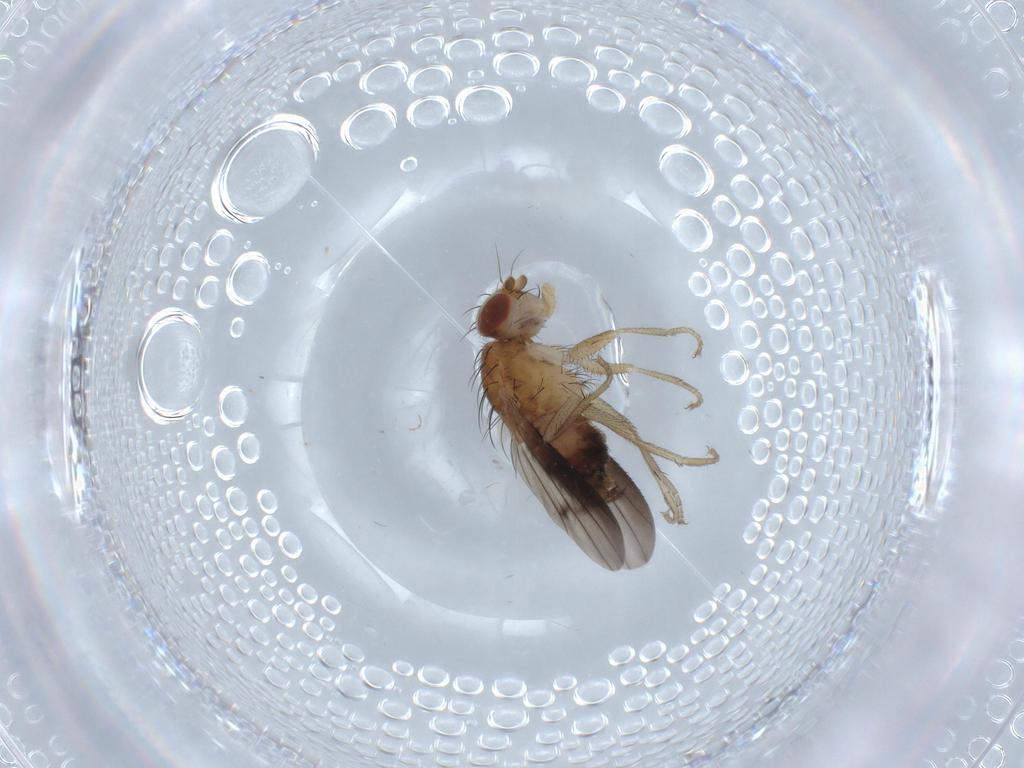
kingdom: Animalia
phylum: Arthropoda
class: Insecta
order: Diptera
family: Heleomyzidae
